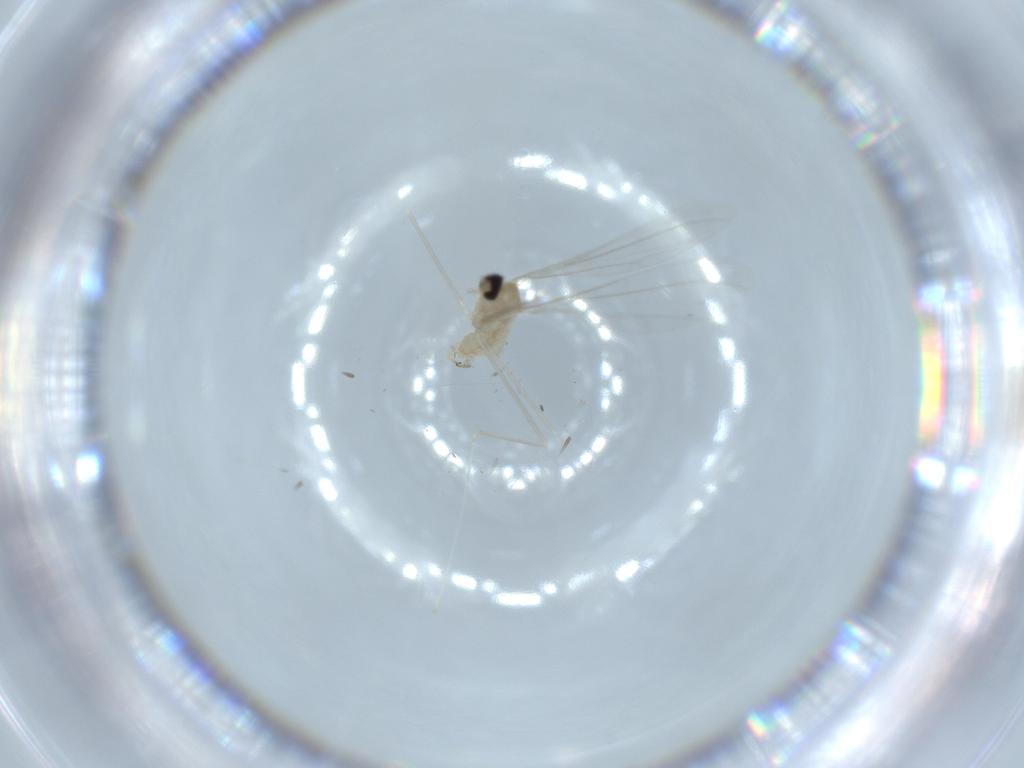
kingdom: Animalia
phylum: Arthropoda
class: Insecta
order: Diptera
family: Cecidomyiidae
